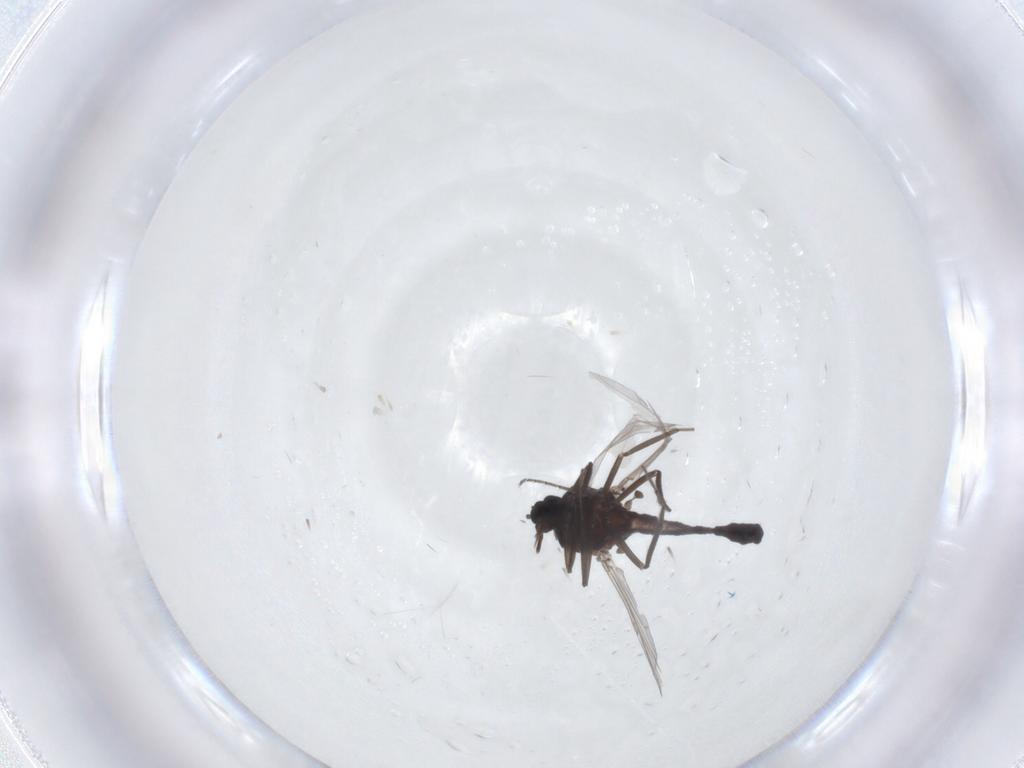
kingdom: Animalia
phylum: Arthropoda
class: Insecta
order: Diptera
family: Ceratopogonidae
